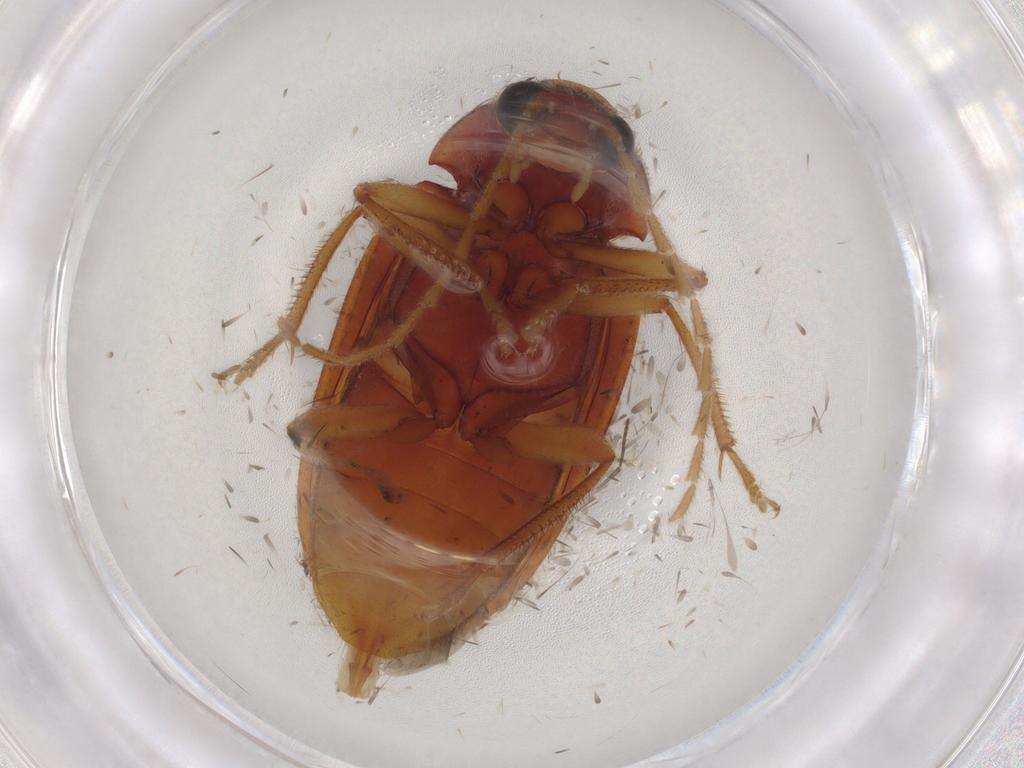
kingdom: Animalia
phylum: Arthropoda
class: Insecta
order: Coleoptera
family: Ptilodactylidae
